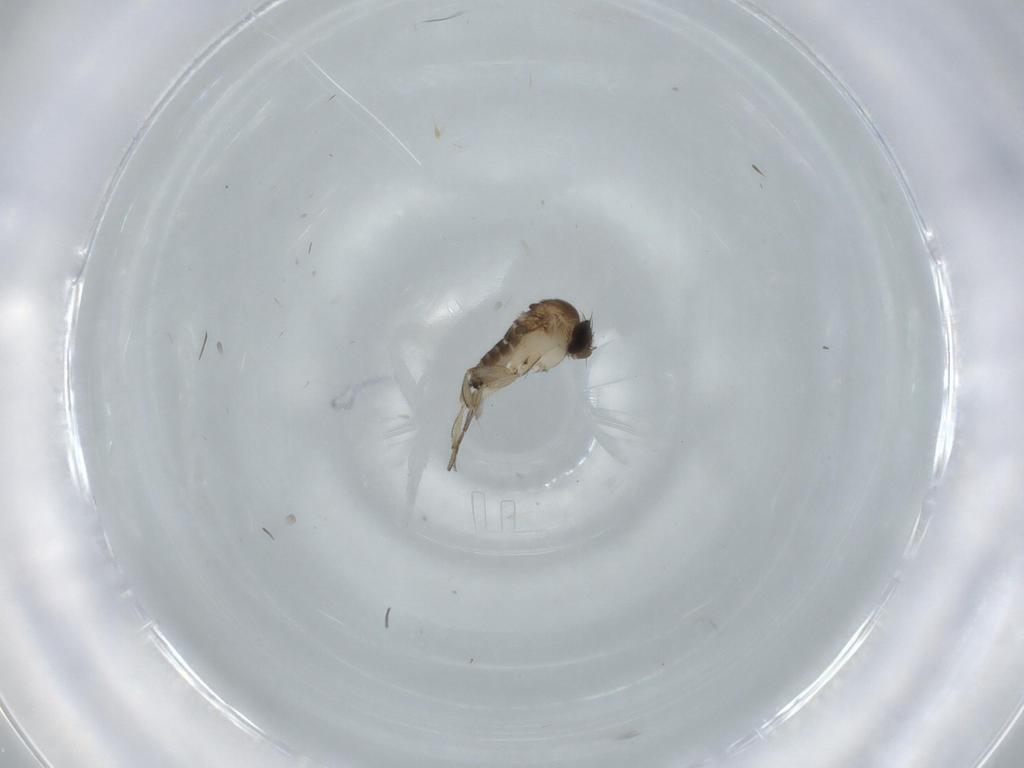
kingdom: Animalia
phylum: Arthropoda
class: Insecta
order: Diptera
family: Phoridae
